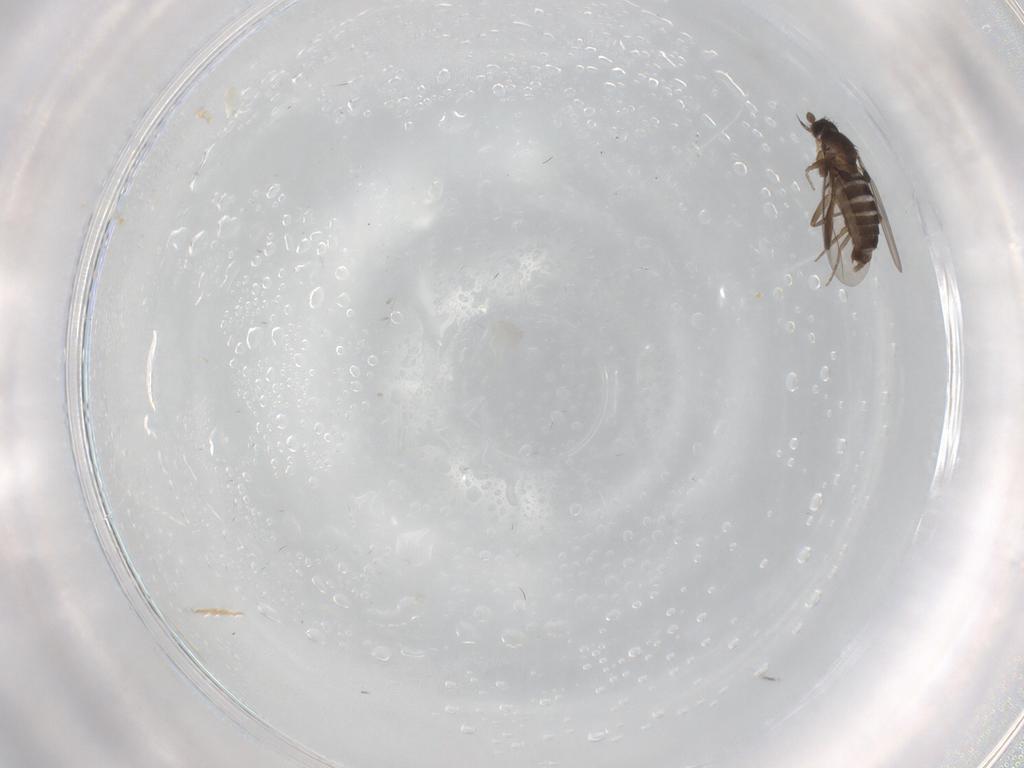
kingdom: Animalia
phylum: Arthropoda
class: Insecta
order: Diptera
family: Phoridae
